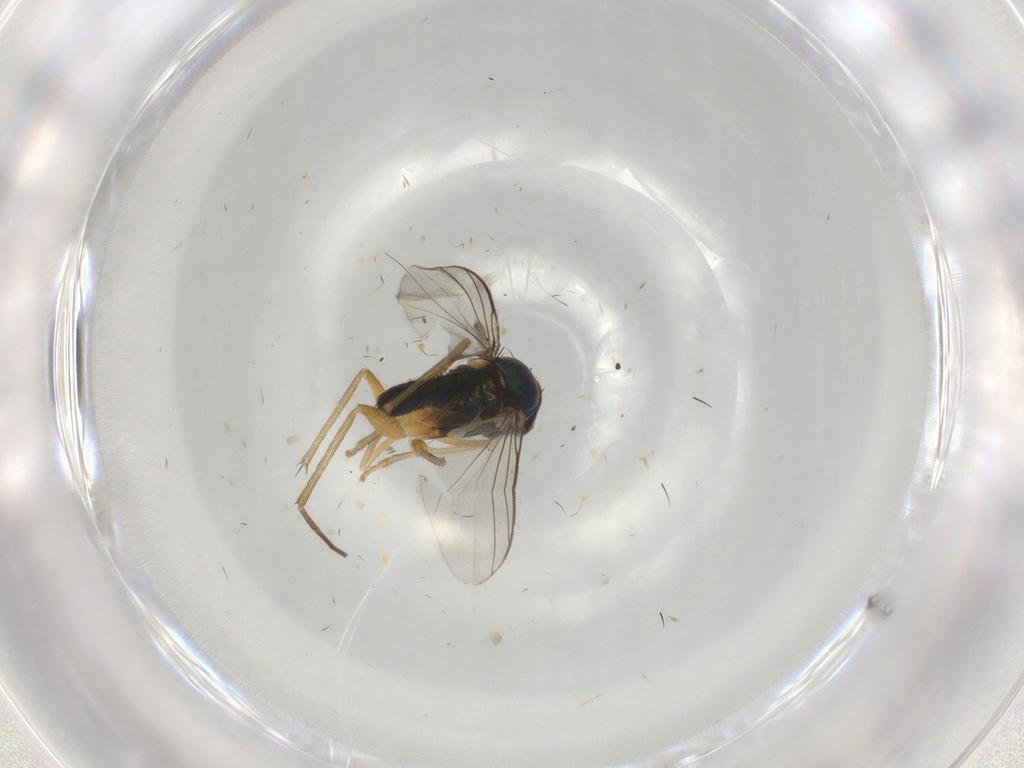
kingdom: Animalia
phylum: Arthropoda
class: Insecta
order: Diptera
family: Dolichopodidae
